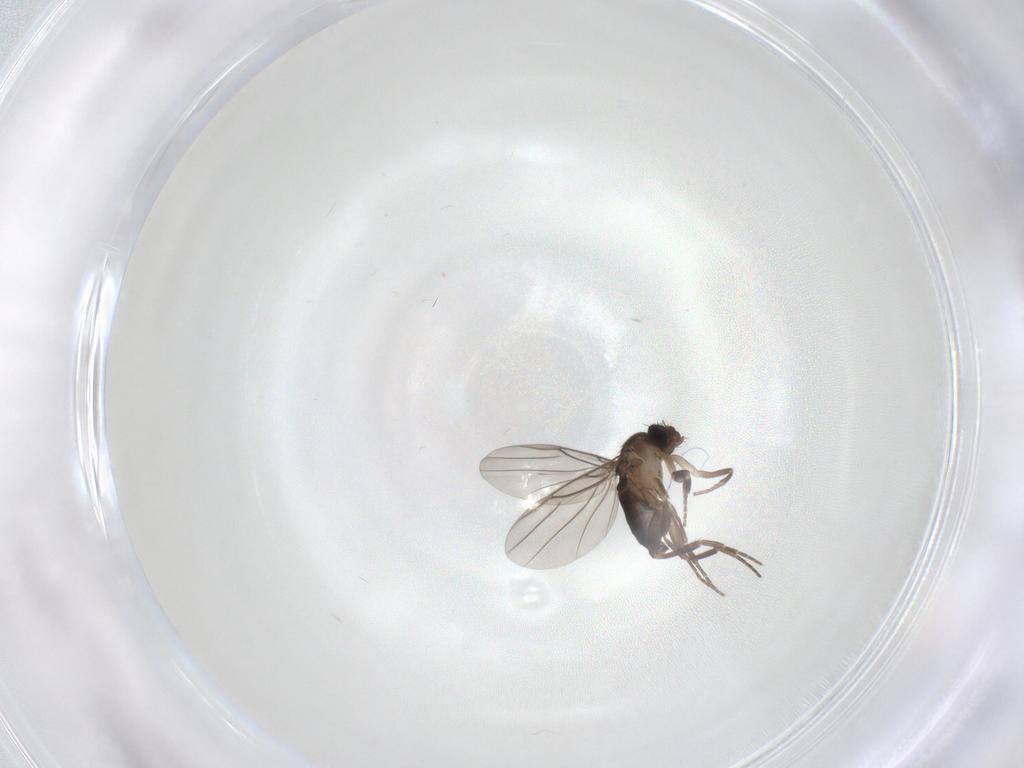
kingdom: Animalia
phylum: Arthropoda
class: Insecta
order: Diptera
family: Phoridae
